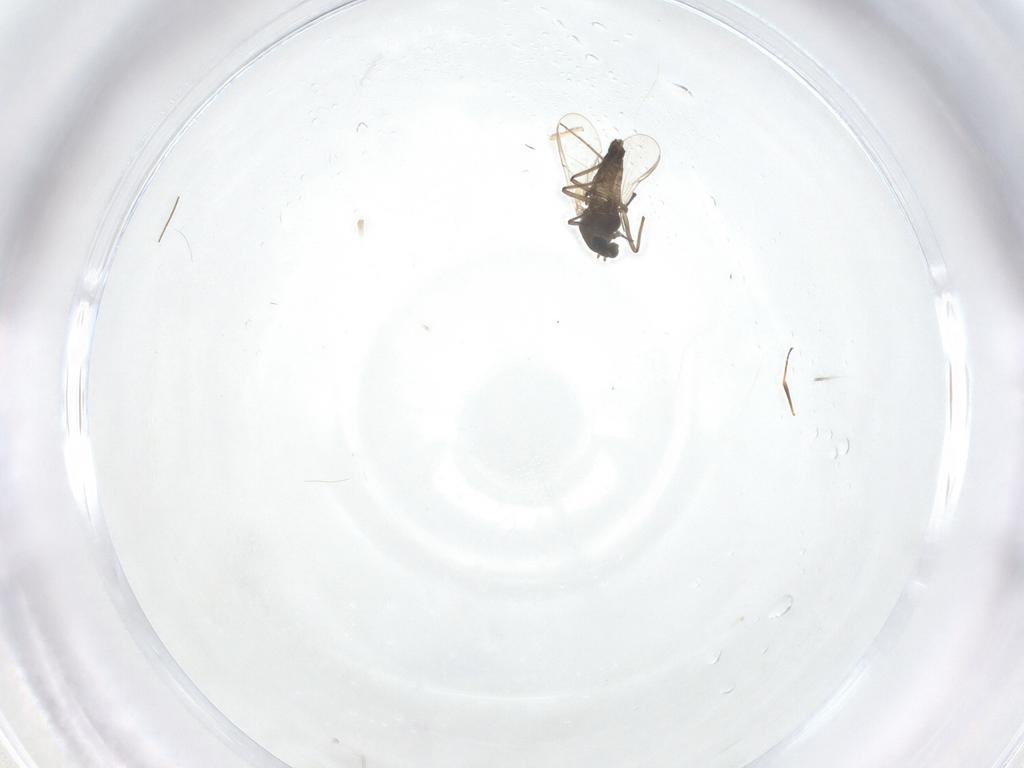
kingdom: Animalia
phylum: Arthropoda
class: Insecta
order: Diptera
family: Chironomidae
